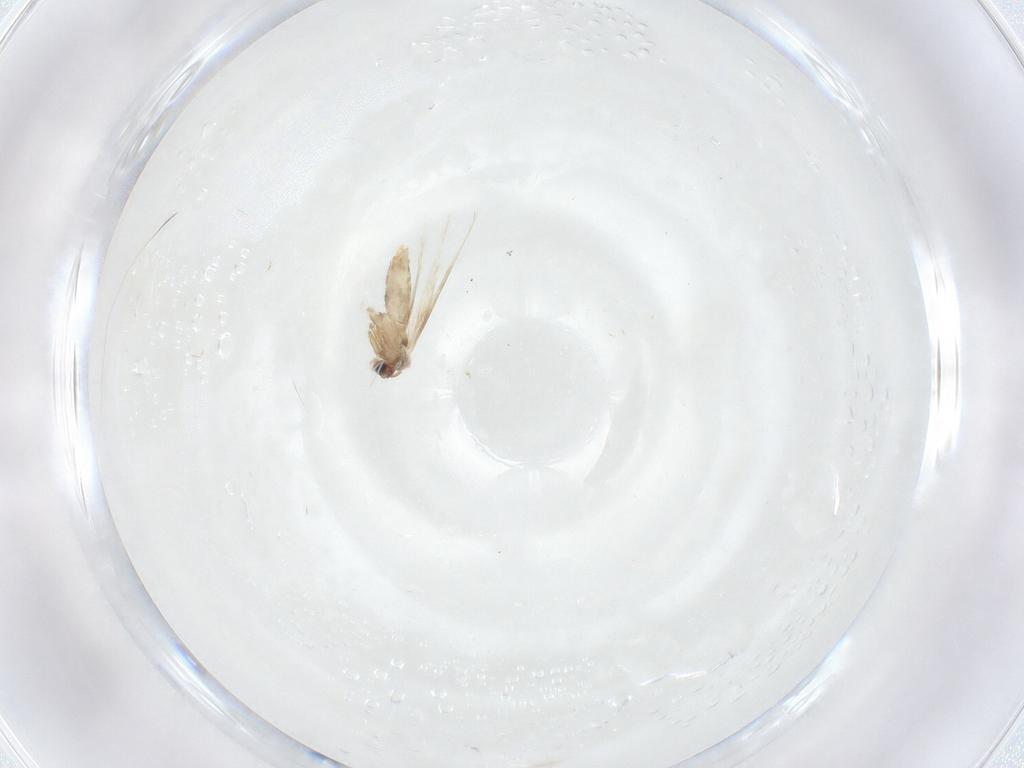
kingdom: Animalia
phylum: Arthropoda
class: Insecta
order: Lepidoptera
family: Nepticulidae
